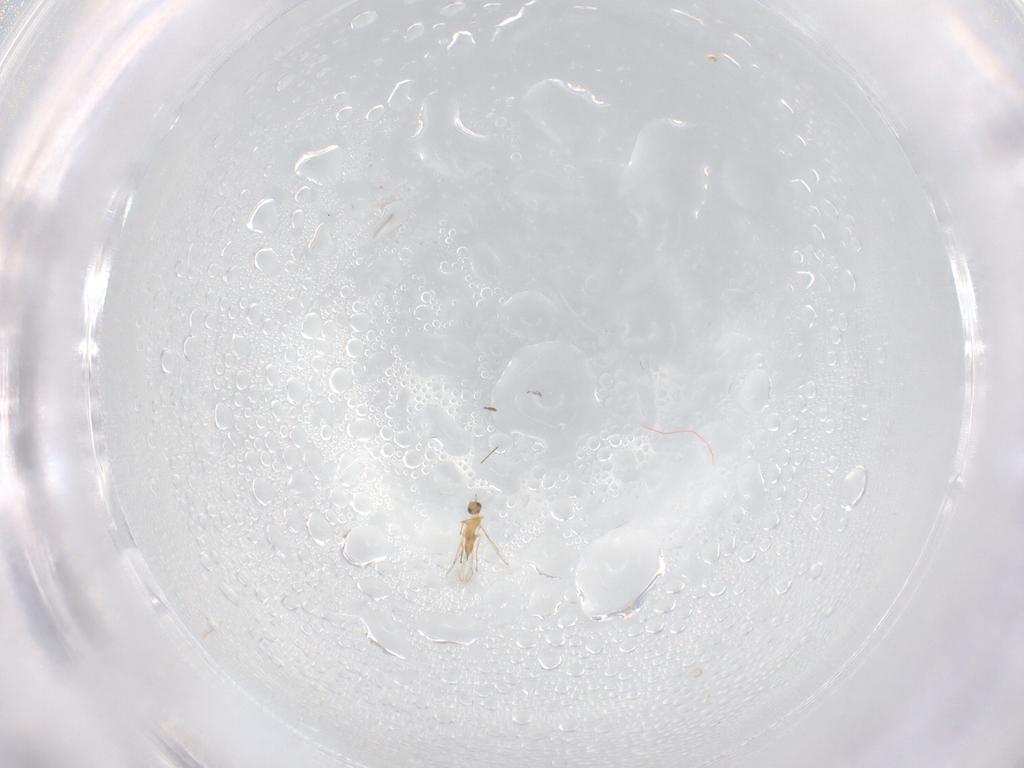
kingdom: Animalia
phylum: Arthropoda
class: Insecta
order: Hymenoptera
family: Mymaridae
